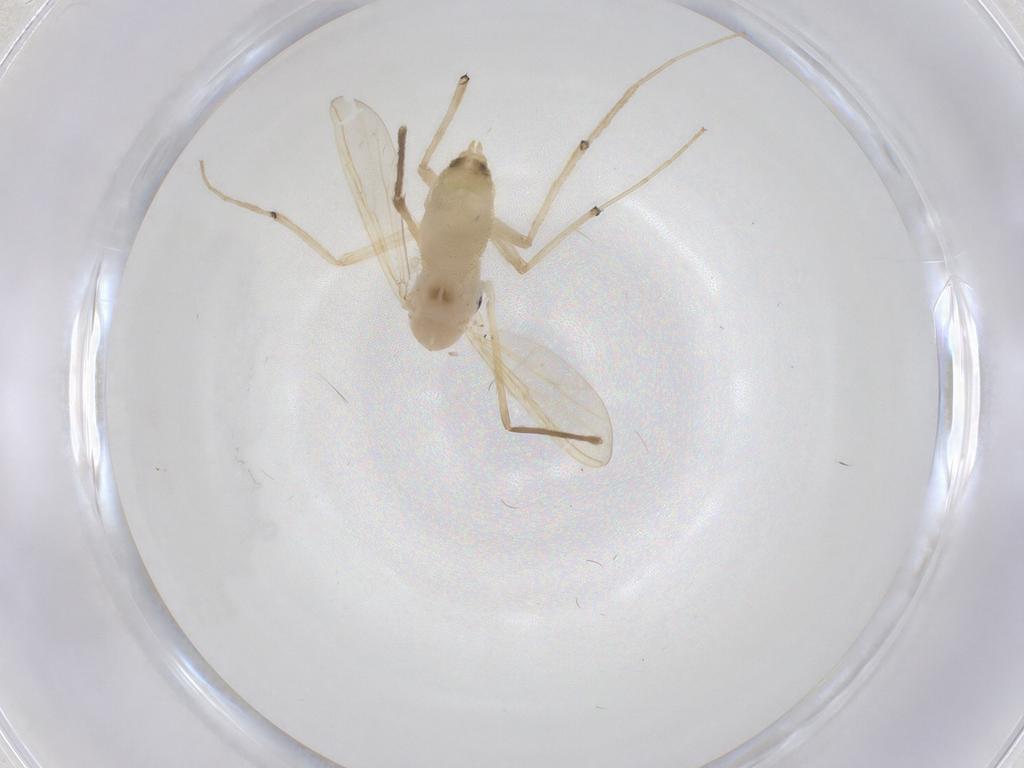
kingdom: Animalia
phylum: Arthropoda
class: Insecta
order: Diptera
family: Chironomidae
